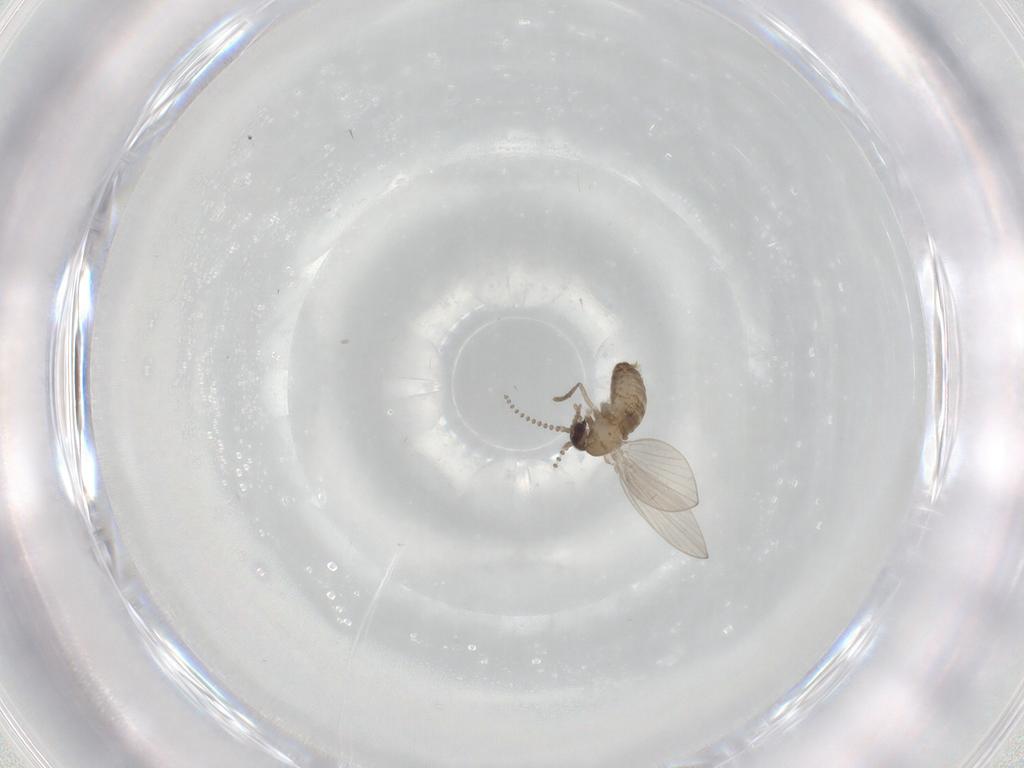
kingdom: Animalia
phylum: Arthropoda
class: Insecta
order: Diptera
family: Psychodidae
